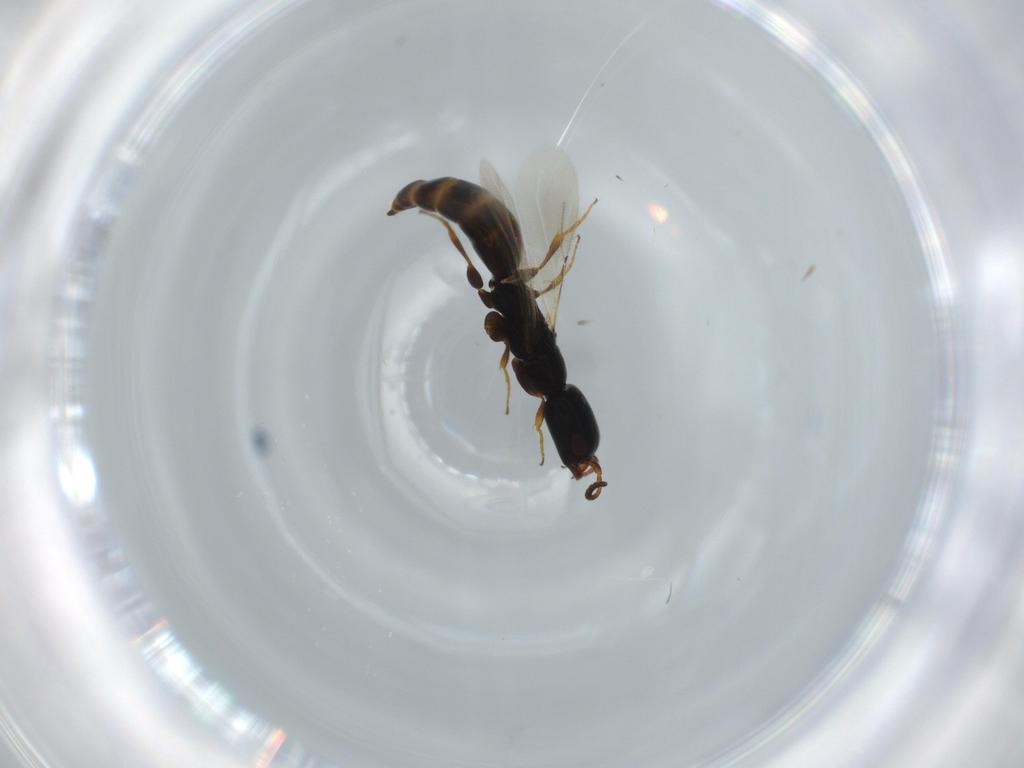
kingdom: Animalia
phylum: Arthropoda
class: Insecta
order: Hymenoptera
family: Bethylidae
